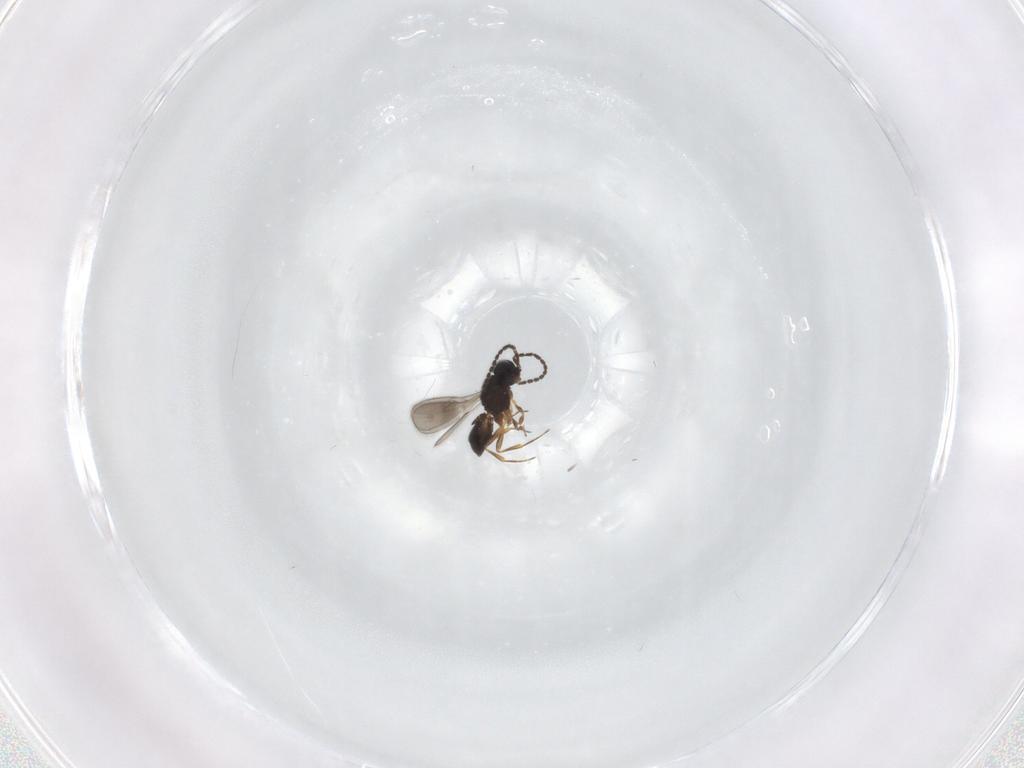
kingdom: Animalia
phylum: Arthropoda
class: Insecta
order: Hymenoptera
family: Scelionidae
